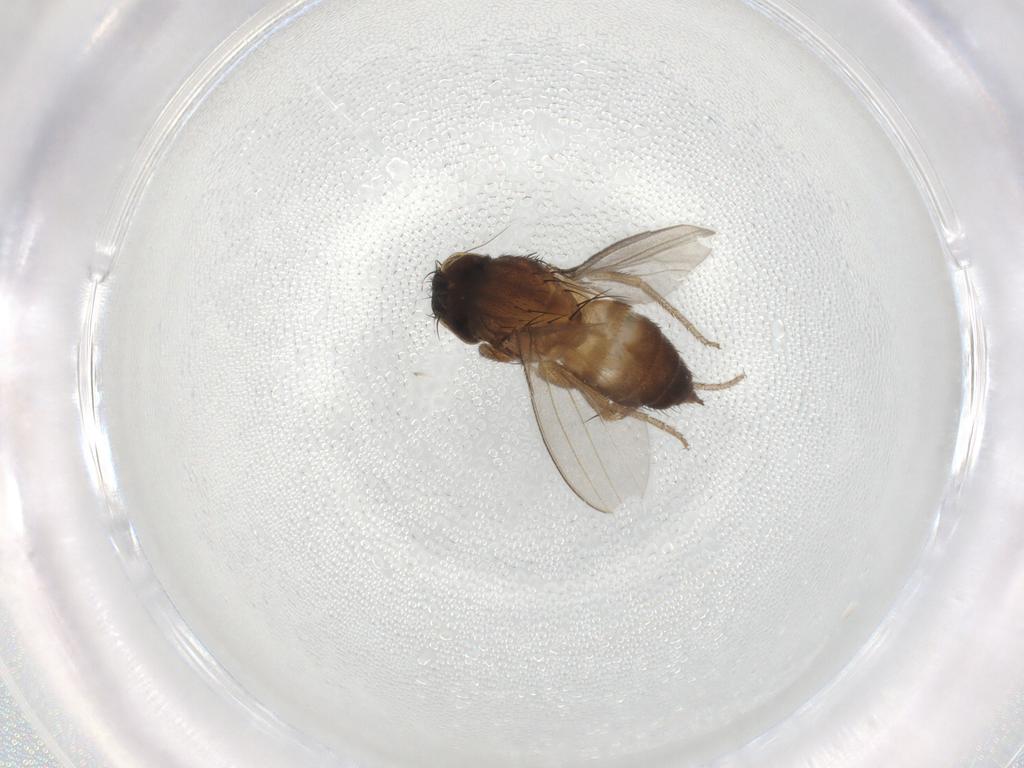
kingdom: Animalia
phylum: Arthropoda
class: Insecta
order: Diptera
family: Milichiidae
